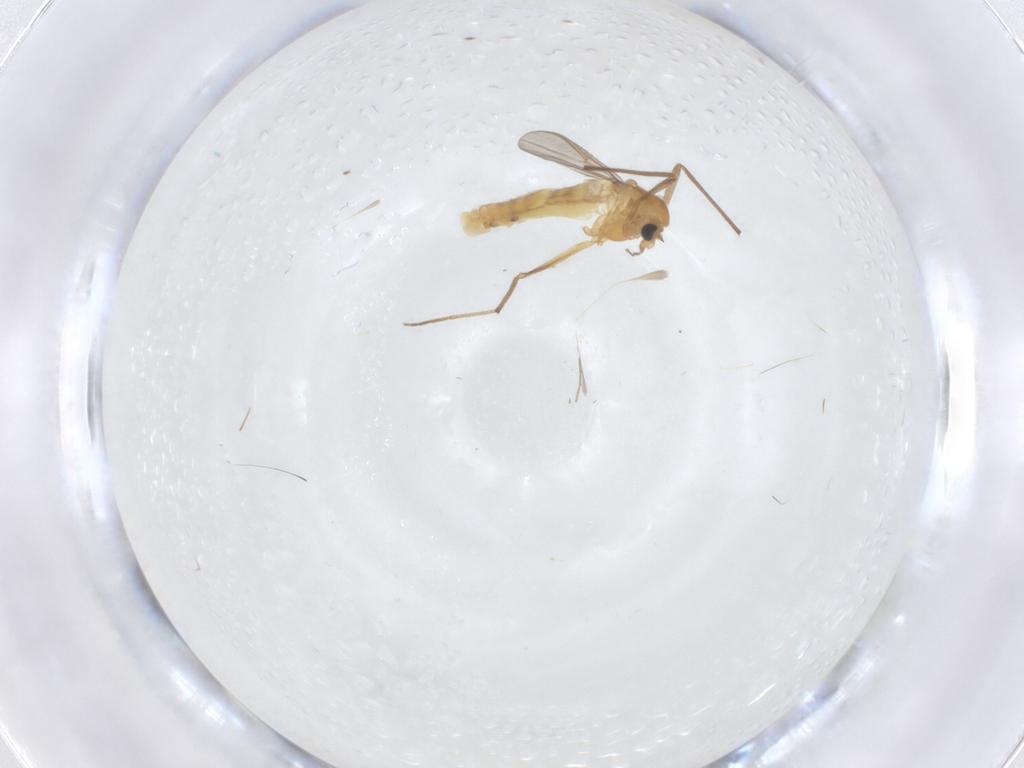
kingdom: Animalia
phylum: Arthropoda
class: Insecta
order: Diptera
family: Chironomidae
